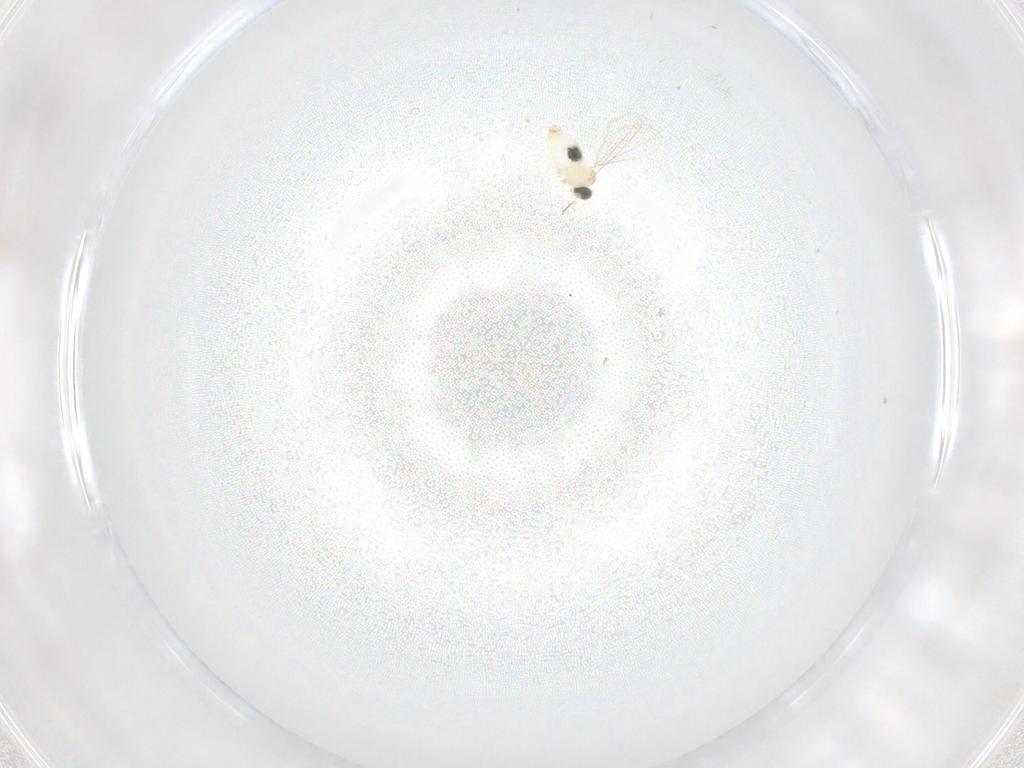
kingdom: Animalia
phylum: Arthropoda
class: Insecta
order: Diptera
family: Cecidomyiidae
